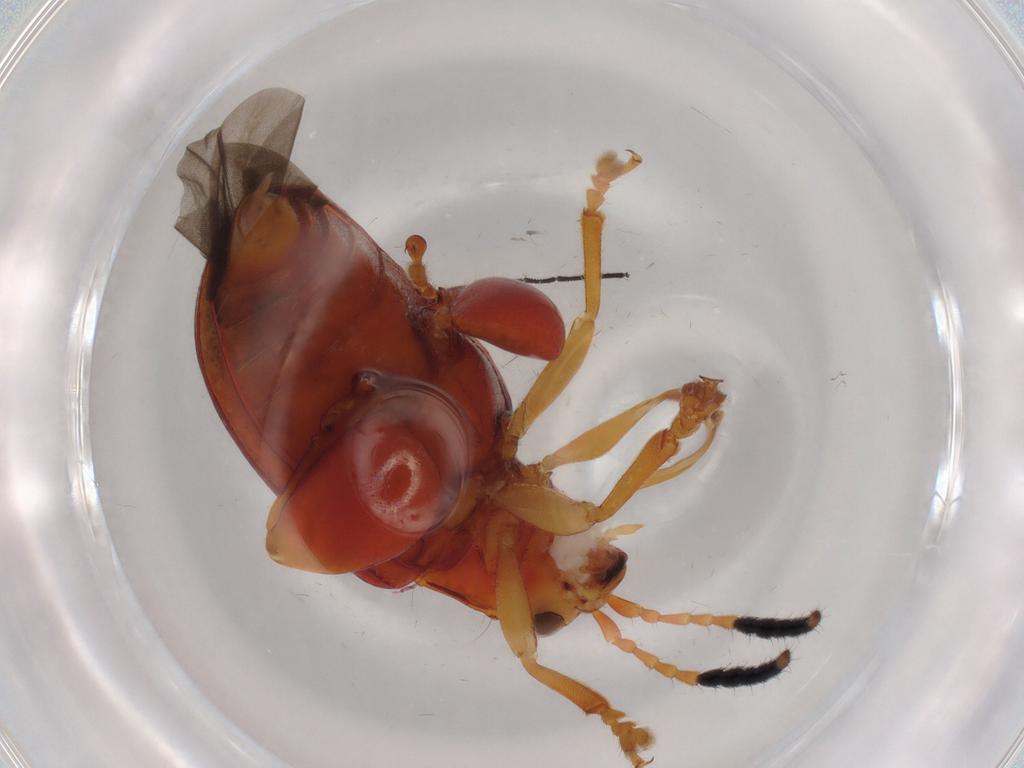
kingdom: Animalia
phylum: Arthropoda
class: Insecta
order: Coleoptera
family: Chrysomelidae
